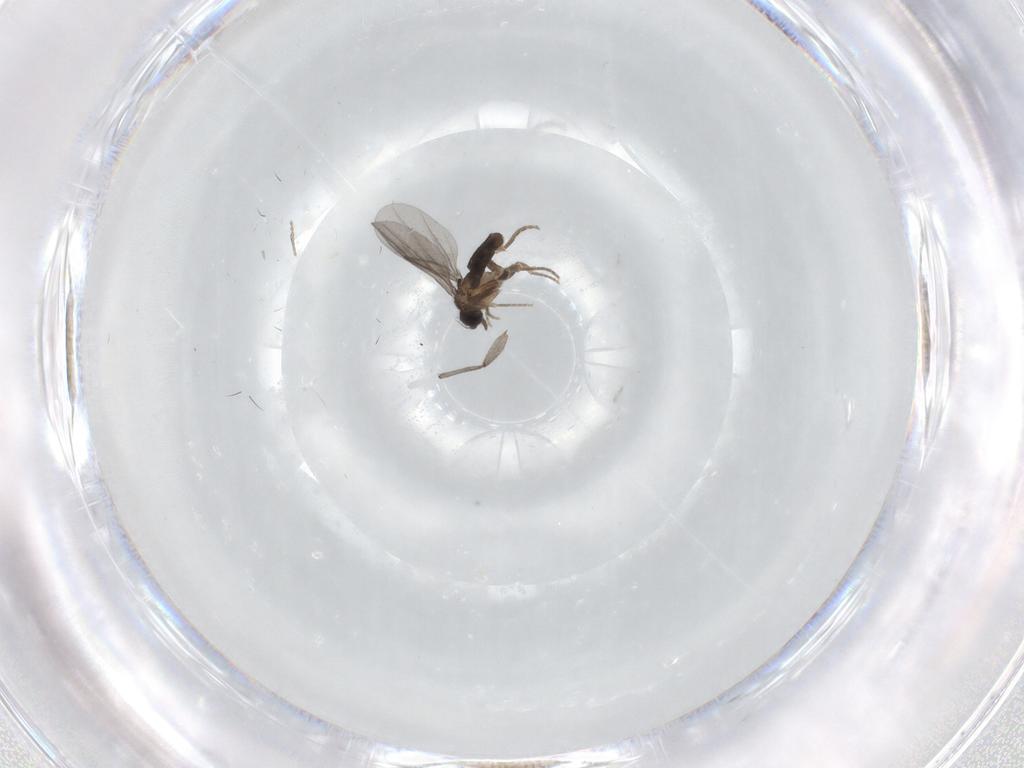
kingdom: Animalia
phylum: Arthropoda
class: Insecta
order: Diptera
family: Sciaridae
